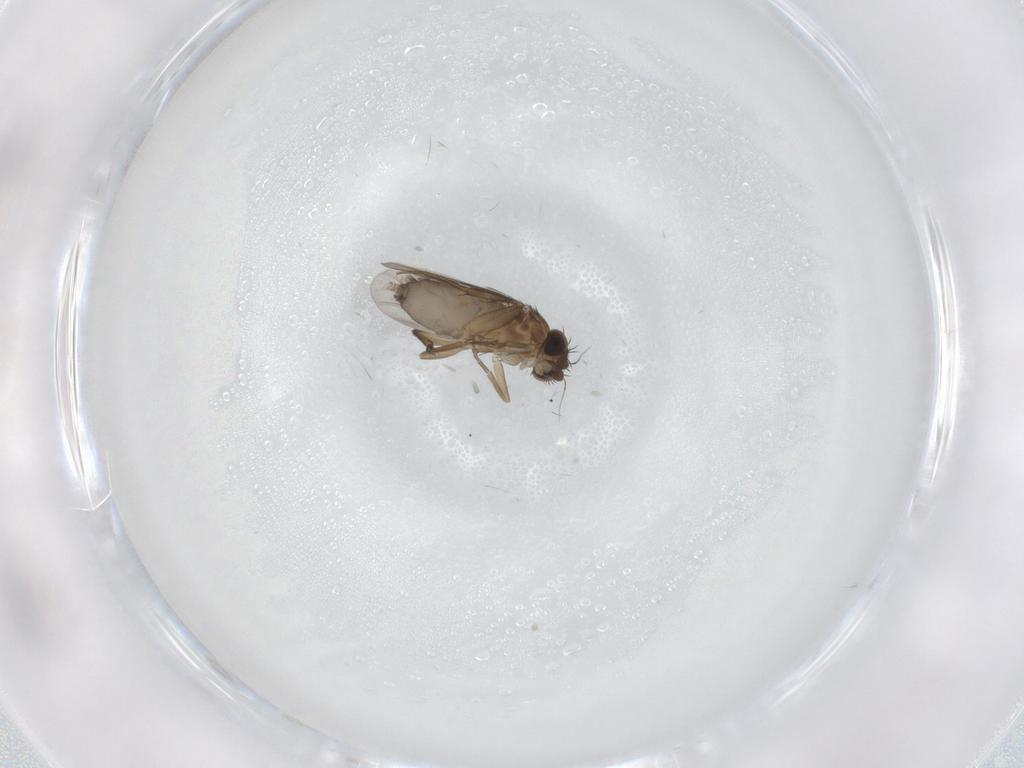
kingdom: Animalia
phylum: Arthropoda
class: Insecta
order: Diptera
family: Phoridae
